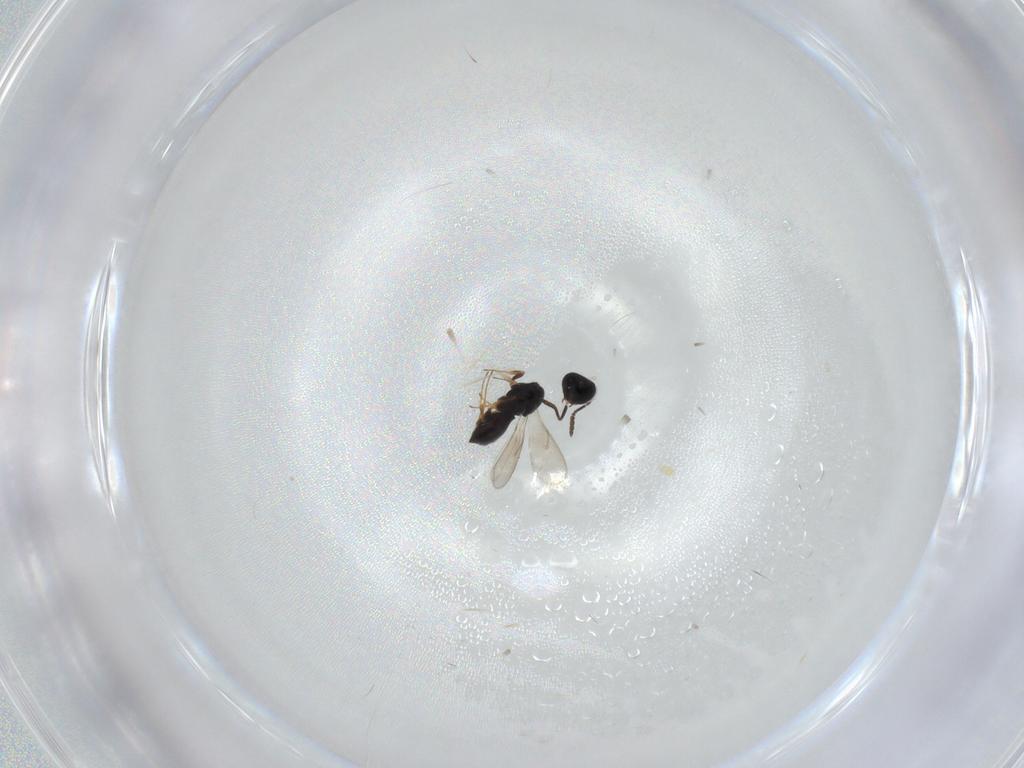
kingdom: Animalia
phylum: Arthropoda
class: Insecta
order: Hymenoptera
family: Scelionidae
